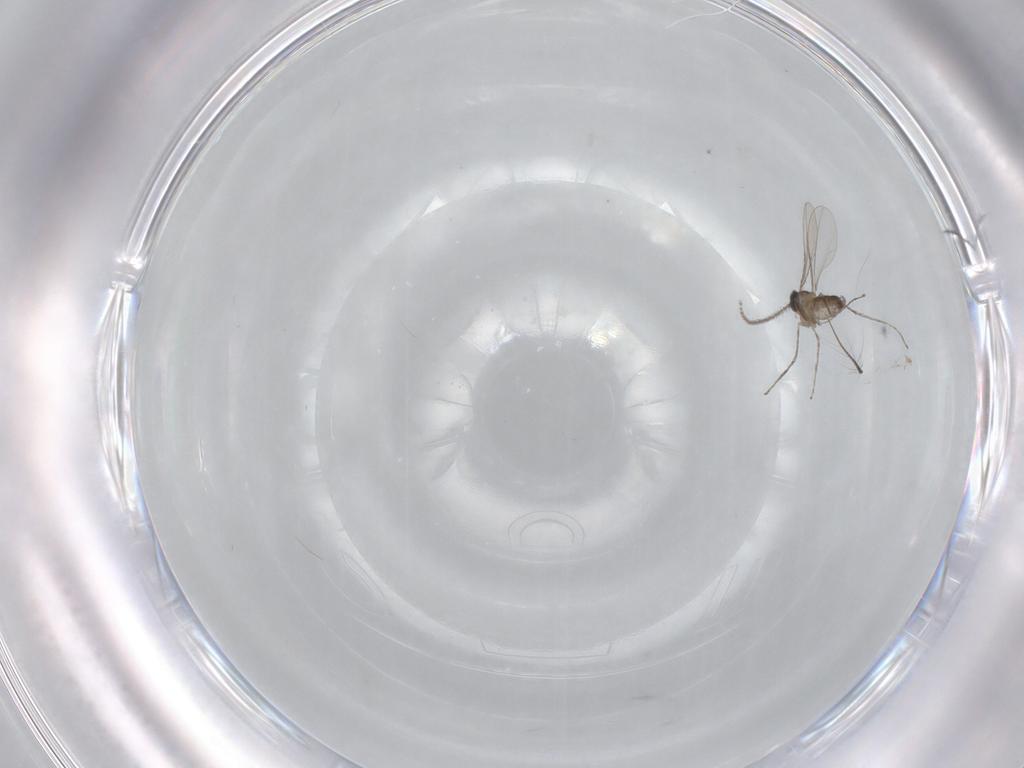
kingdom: Animalia
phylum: Arthropoda
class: Insecta
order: Diptera
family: Cecidomyiidae
